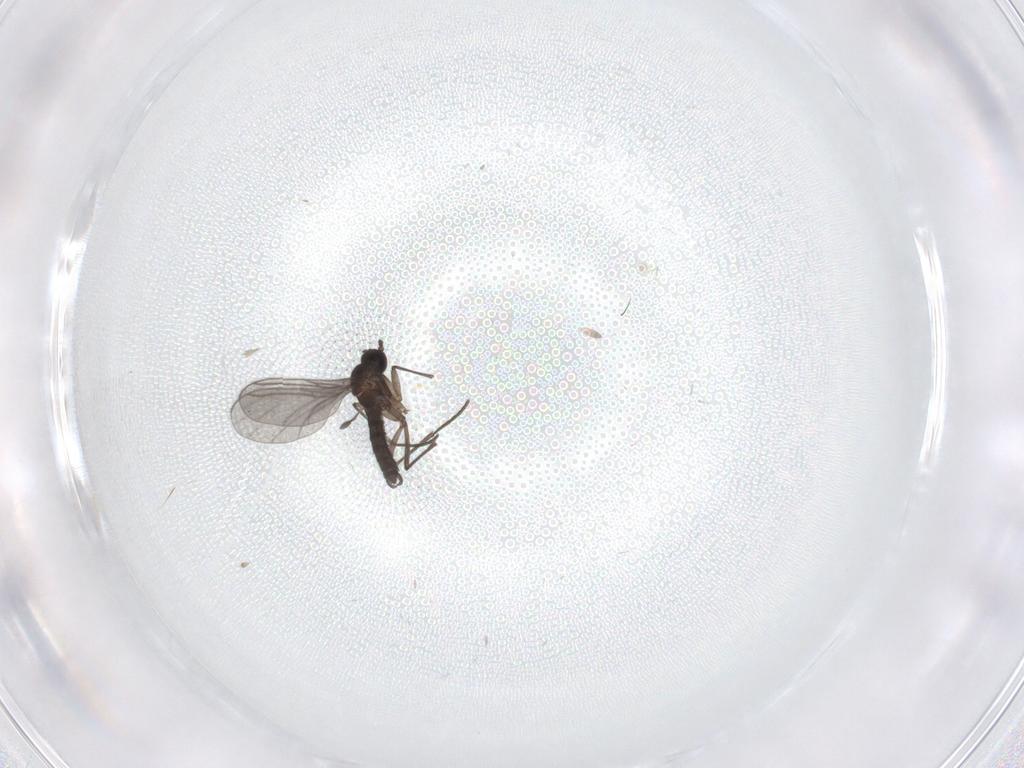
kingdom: Animalia
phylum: Arthropoda
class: Insecta
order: Diptera
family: Cecidomyiidae
